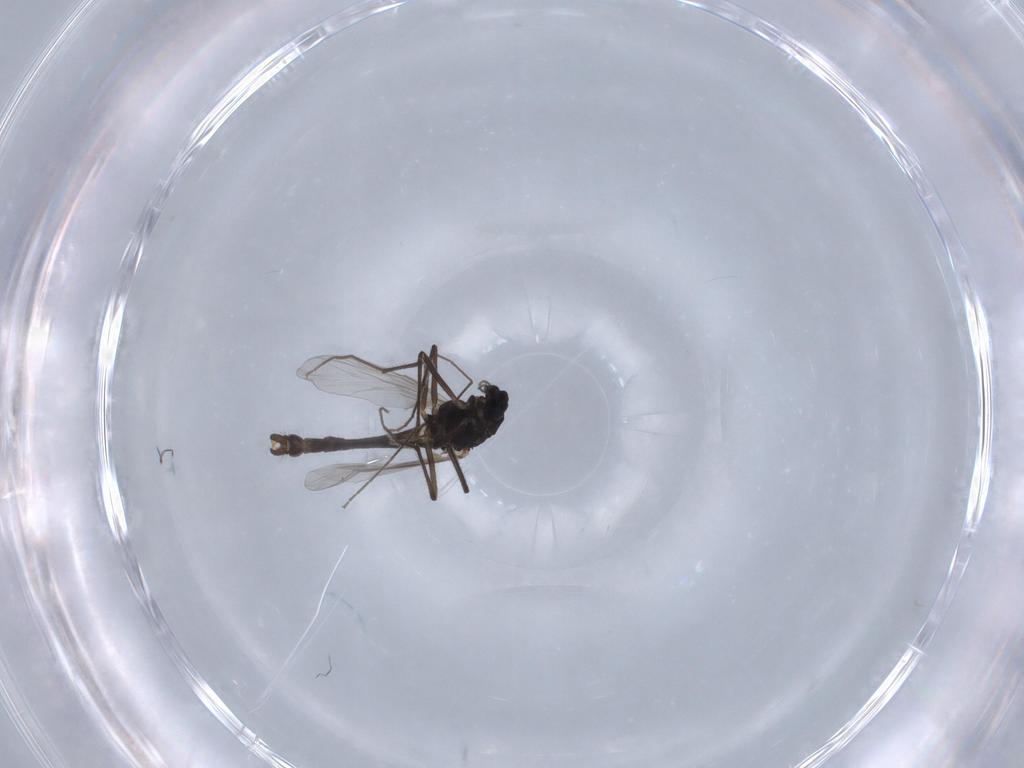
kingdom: Animalia
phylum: Arthropoda
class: Insecta
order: Diptera
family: Chironomidae
